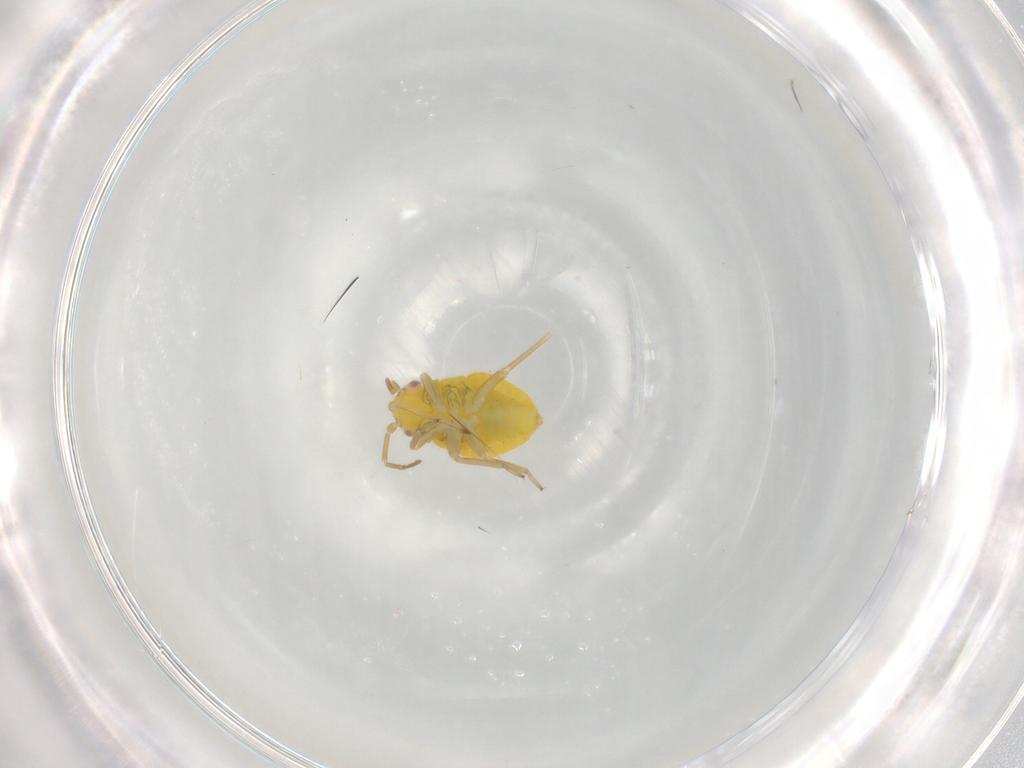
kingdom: Animalia
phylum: Arthropoda
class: Insecta
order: Hemiptera
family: Miridae
